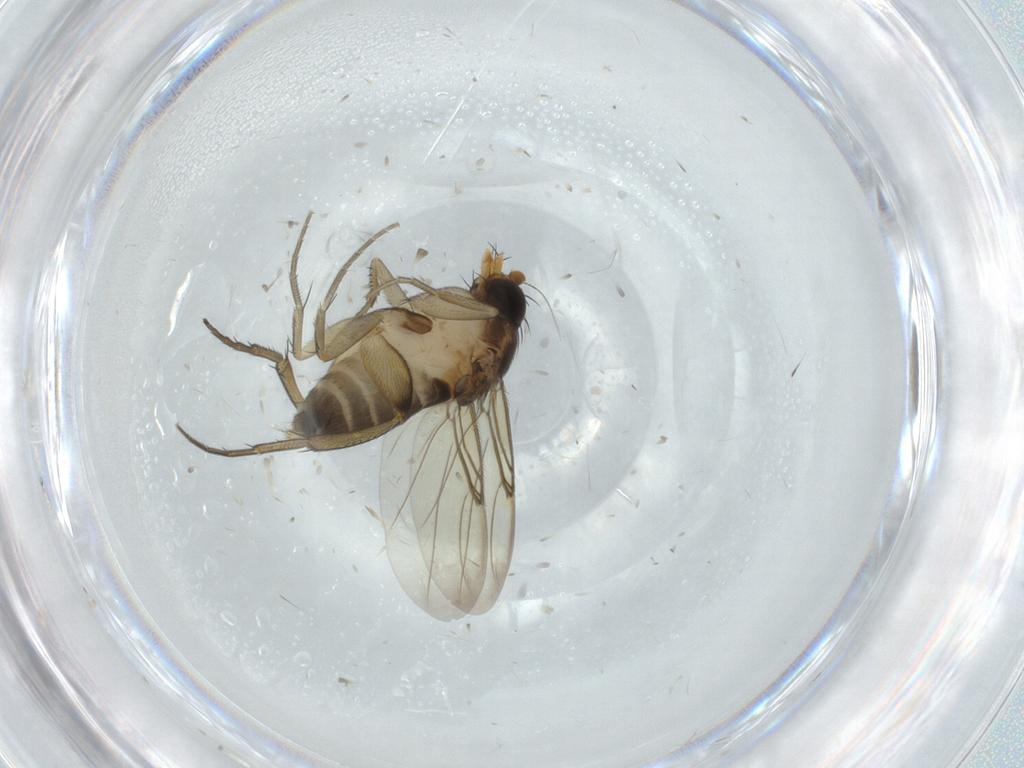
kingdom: Animalia
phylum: Arthropoda
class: Insecta
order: Diptera
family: Phoridae
